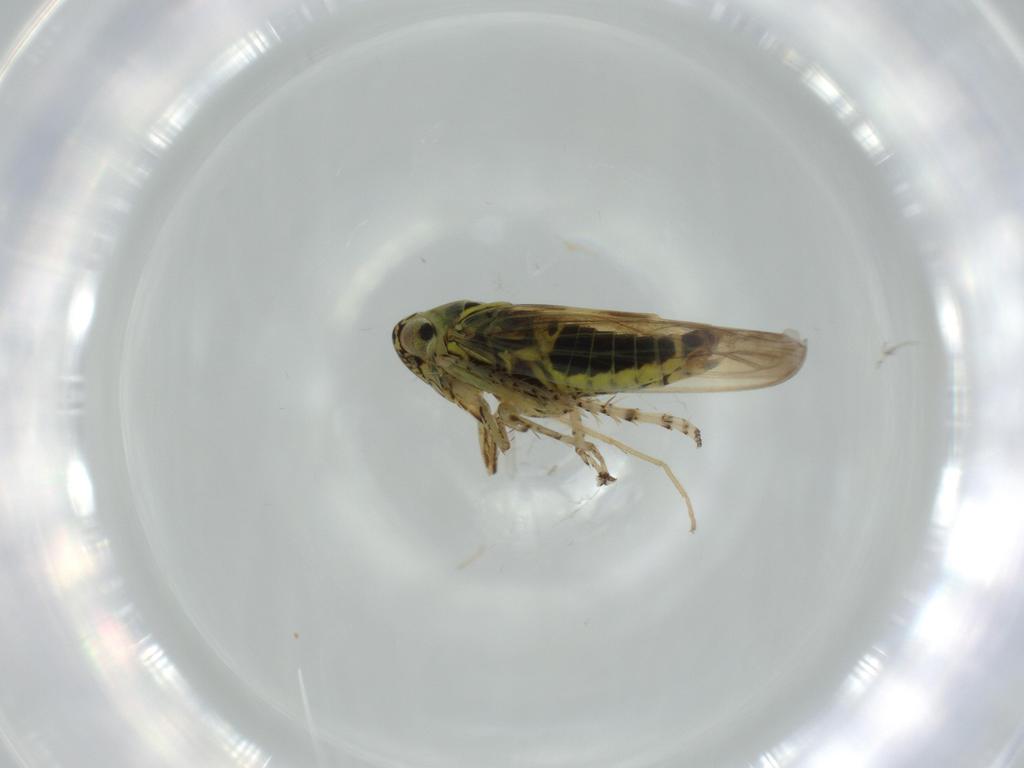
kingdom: Animalia
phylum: Arthropoda
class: Insecta
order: Hemiptera
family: Cicadellidae
